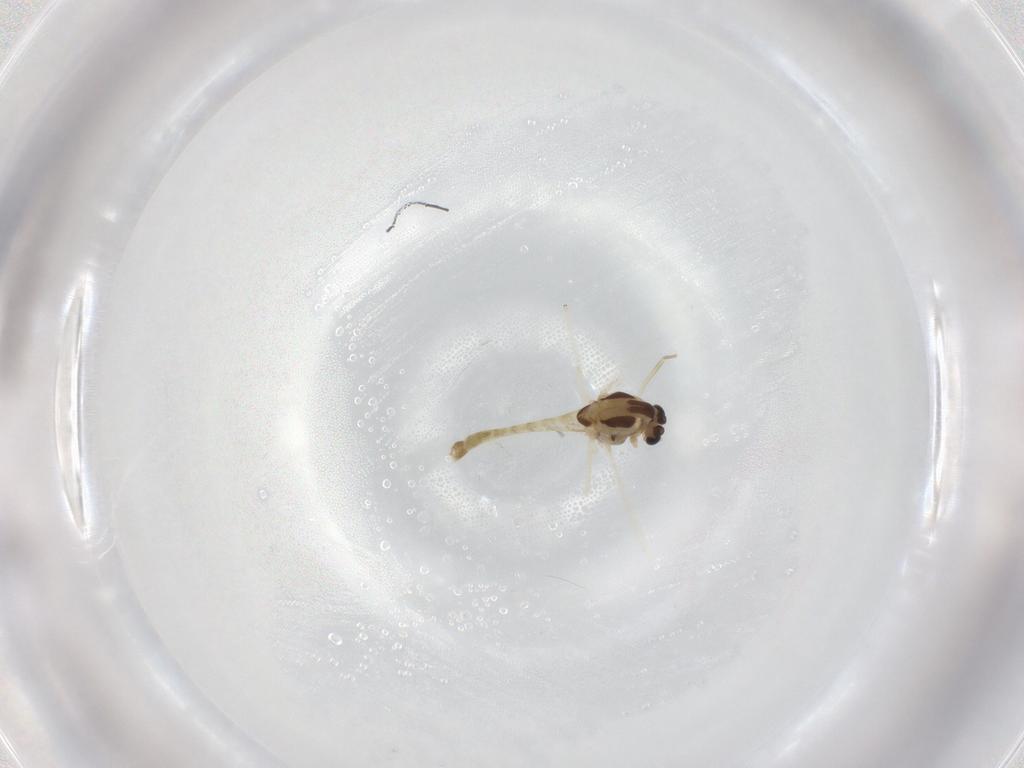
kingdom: Animalia
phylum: Arthropoda
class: Insecta
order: Diptera
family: Chironomidae
